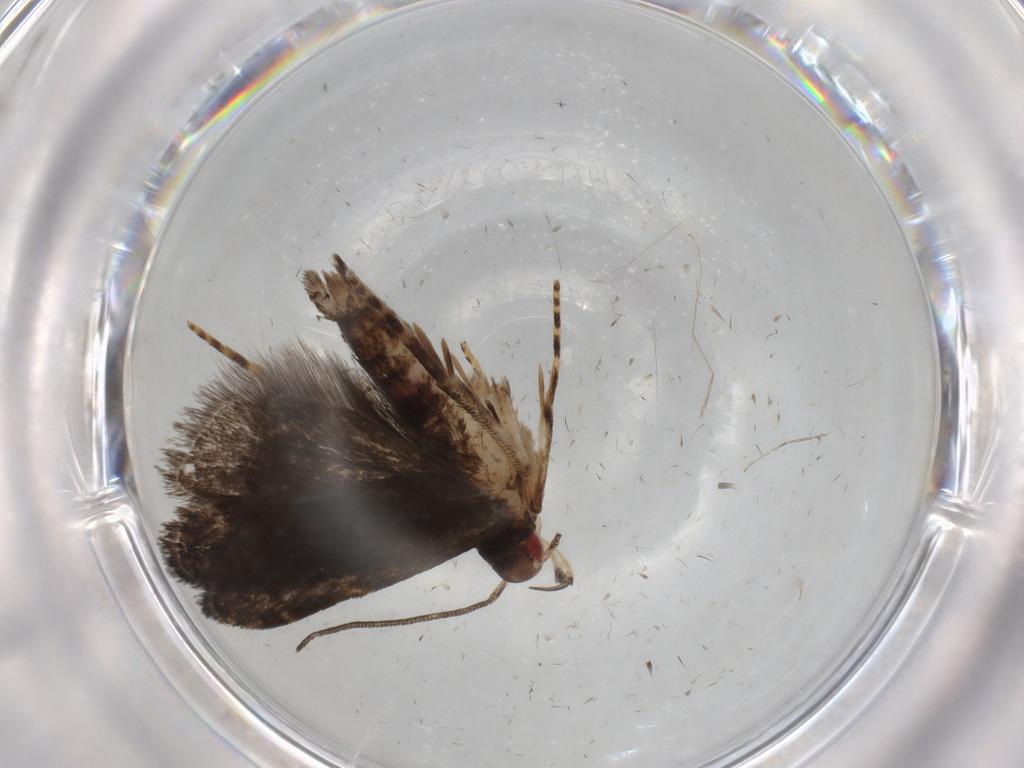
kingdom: Animalia
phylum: Arthropoda
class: Insecta
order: Lepidoptera
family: Gelechiidae
